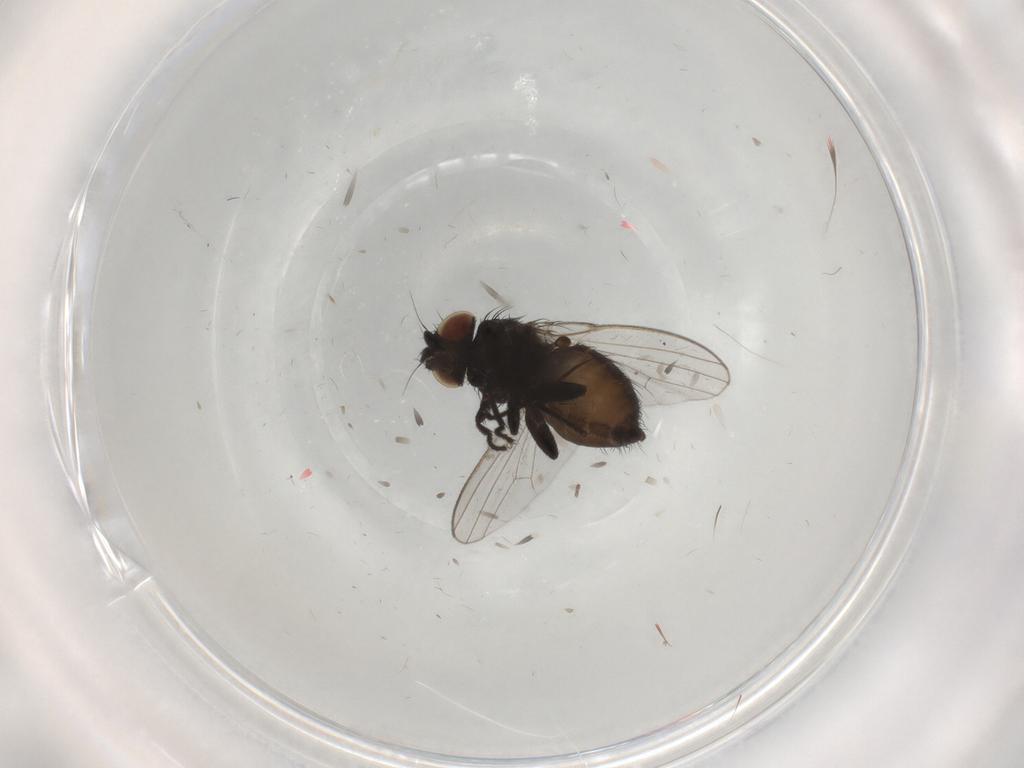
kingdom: Animalia
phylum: Arthropoda
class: Insecta
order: Diptera
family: Milichiidae
